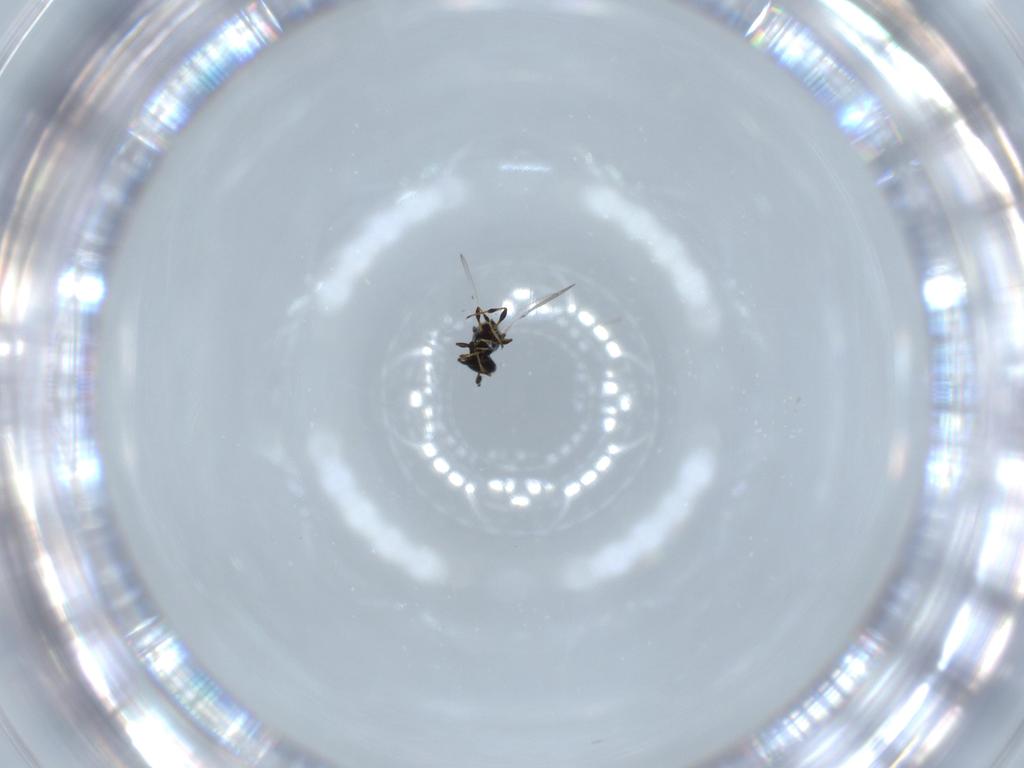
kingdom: Animalia
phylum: Arthropoda
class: Insecta
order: Hymenoptera
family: Platygastridae
